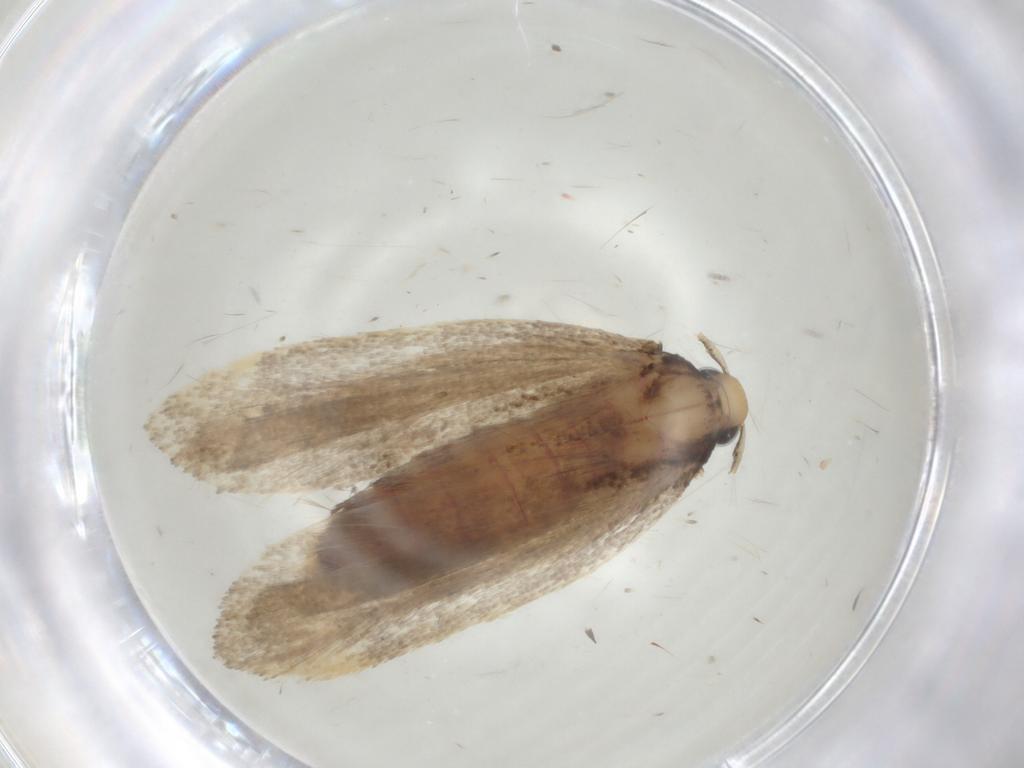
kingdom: Animalia
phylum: Arthropoda
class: Insecta
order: Lepidoptera
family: Lecithoceridae
